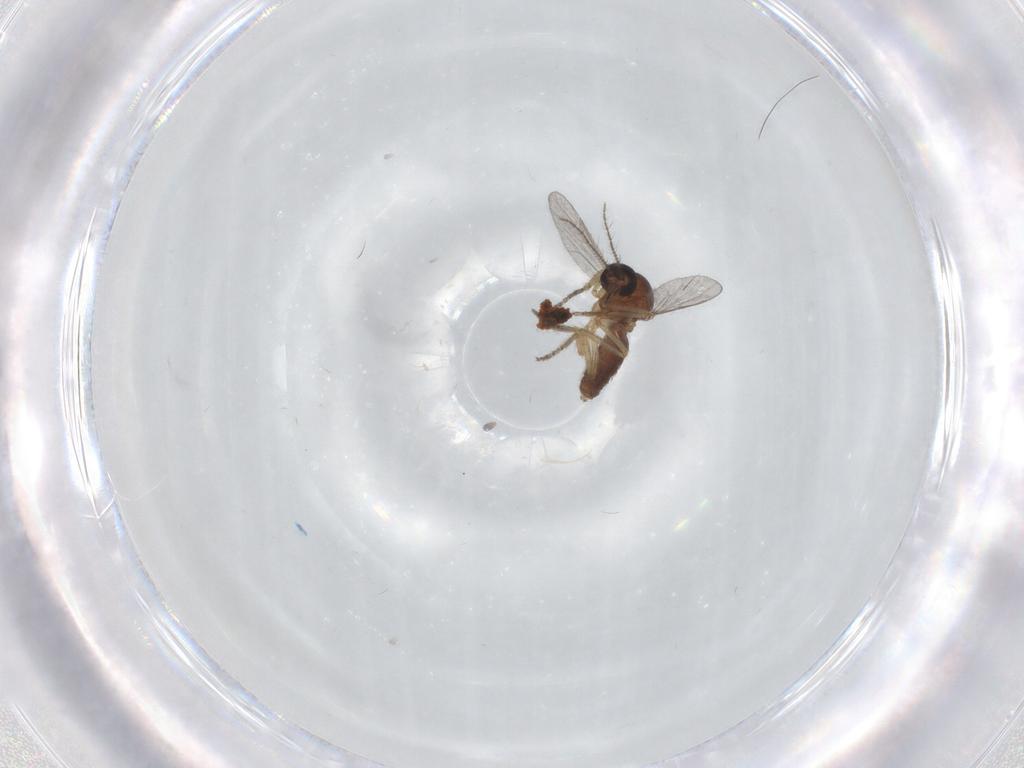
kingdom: Animalia
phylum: Arthropoda
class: Insecta
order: Diptera
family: Ceratopogonidae
